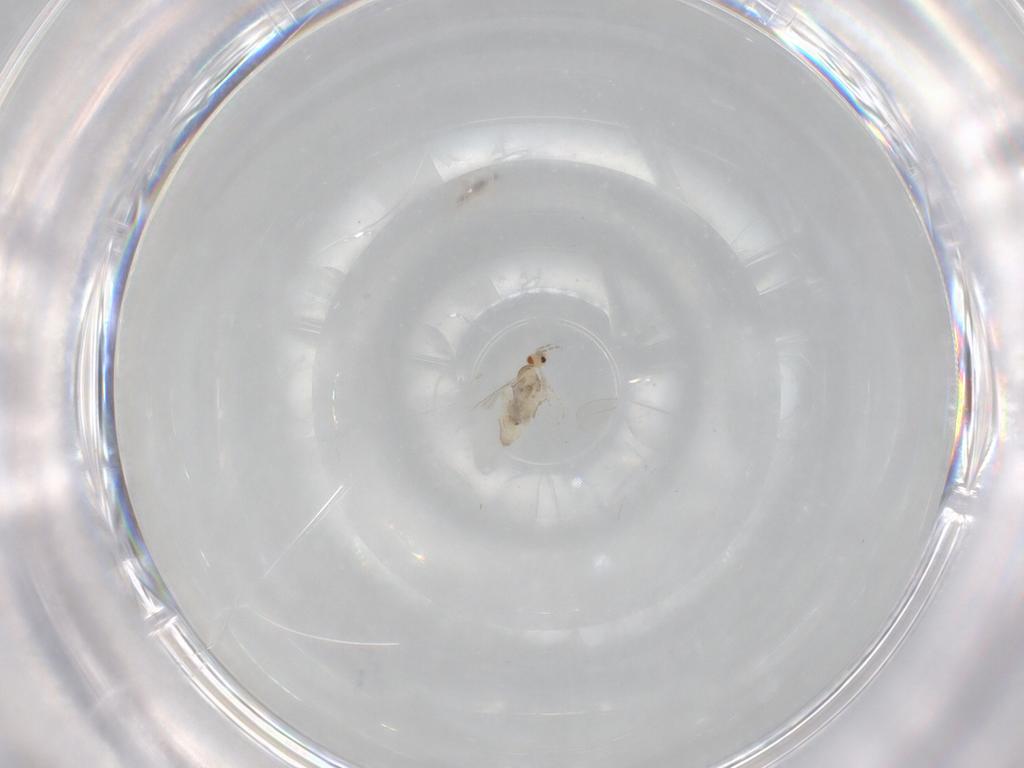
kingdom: Animalia
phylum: Arthropoda
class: Insecta
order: Diptera
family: Cecidomyiidae
